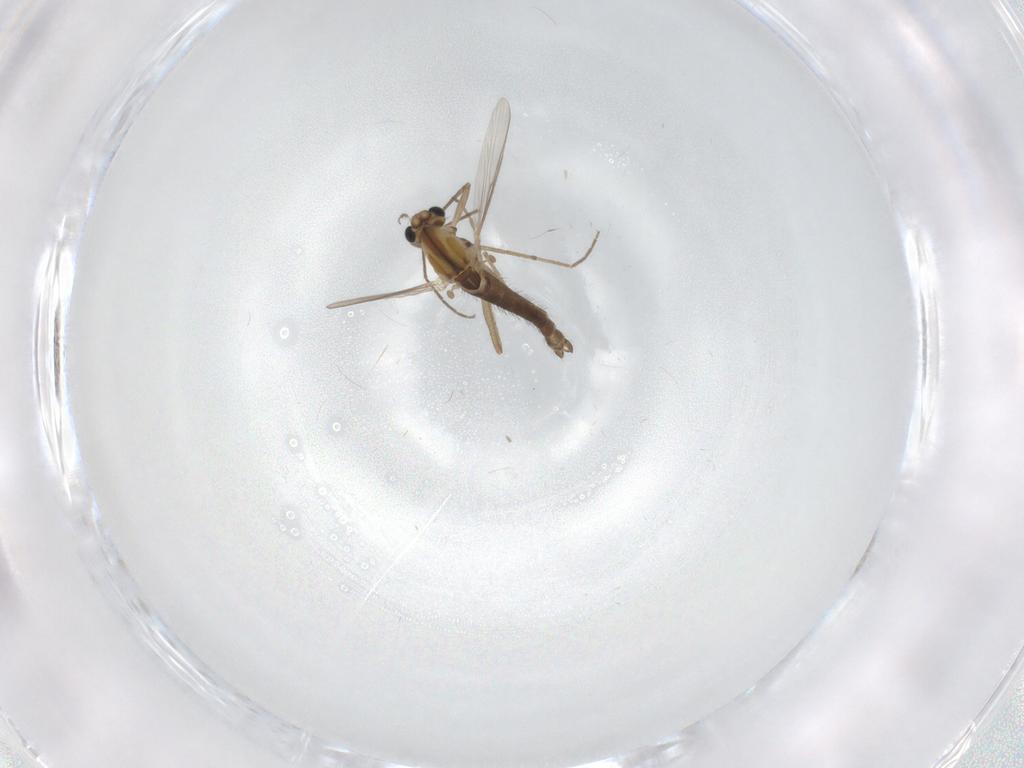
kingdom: Animalia
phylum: Arthropoda
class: Insecta
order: Diptera
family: Chironomidae
